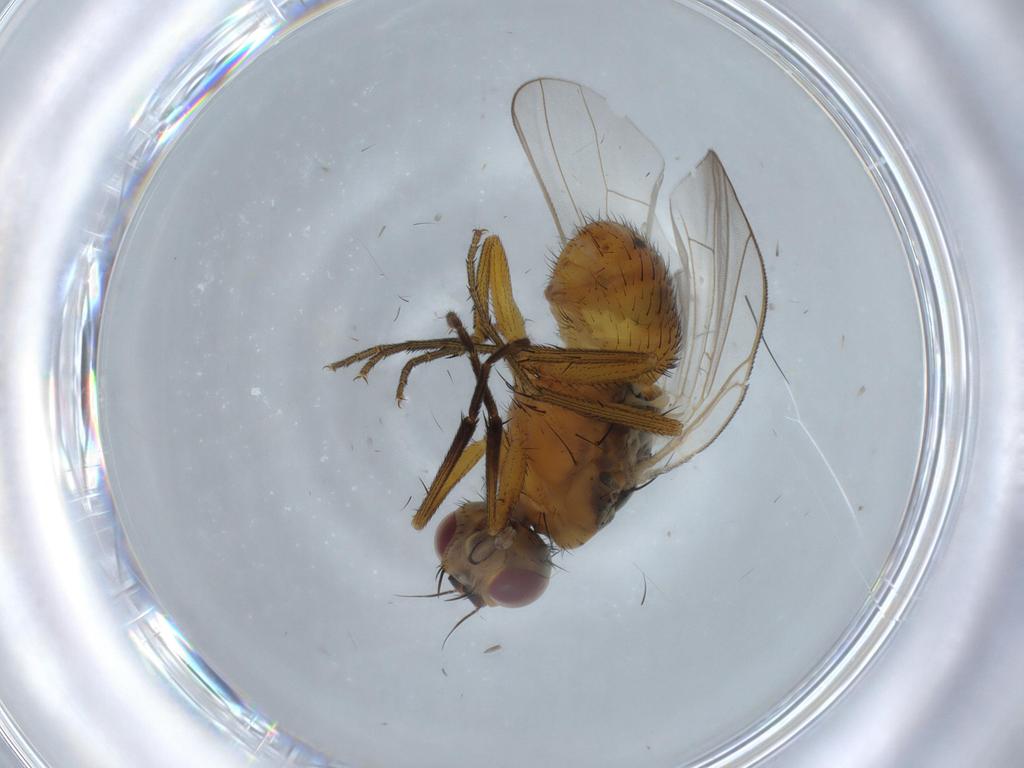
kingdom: Animalia
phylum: Arthropoda
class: Insecta
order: Diptera
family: Muscidae
